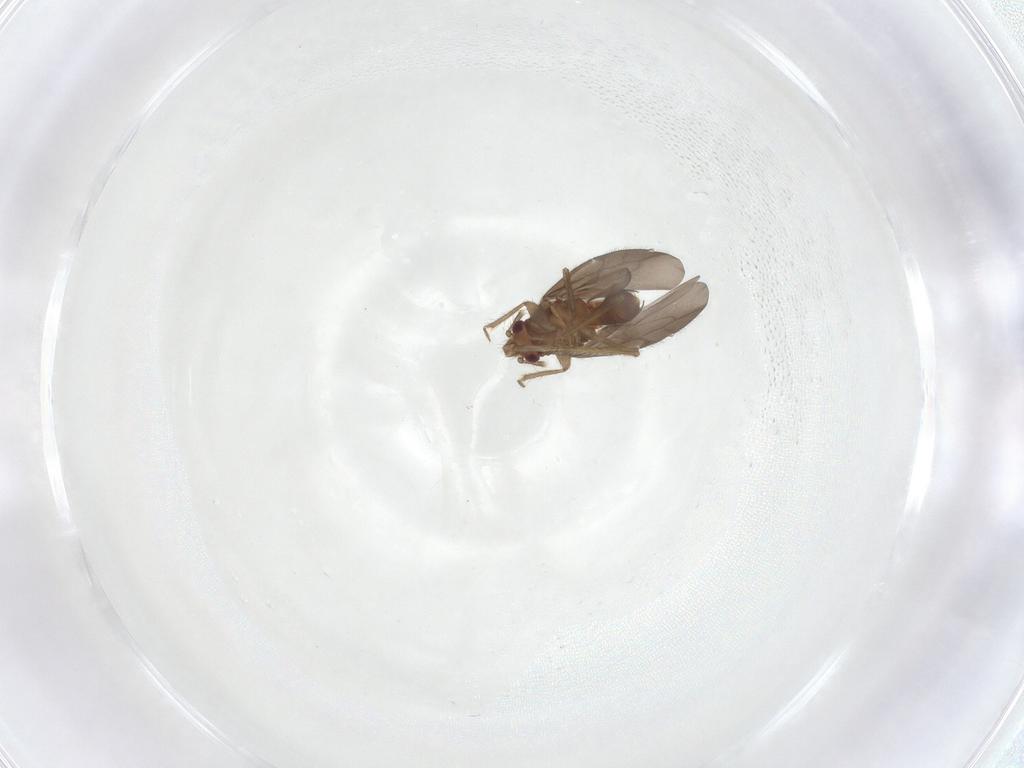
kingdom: Animalia
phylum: Arthropoda
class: Insecta
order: Hemiptera
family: Ceratocombidae
